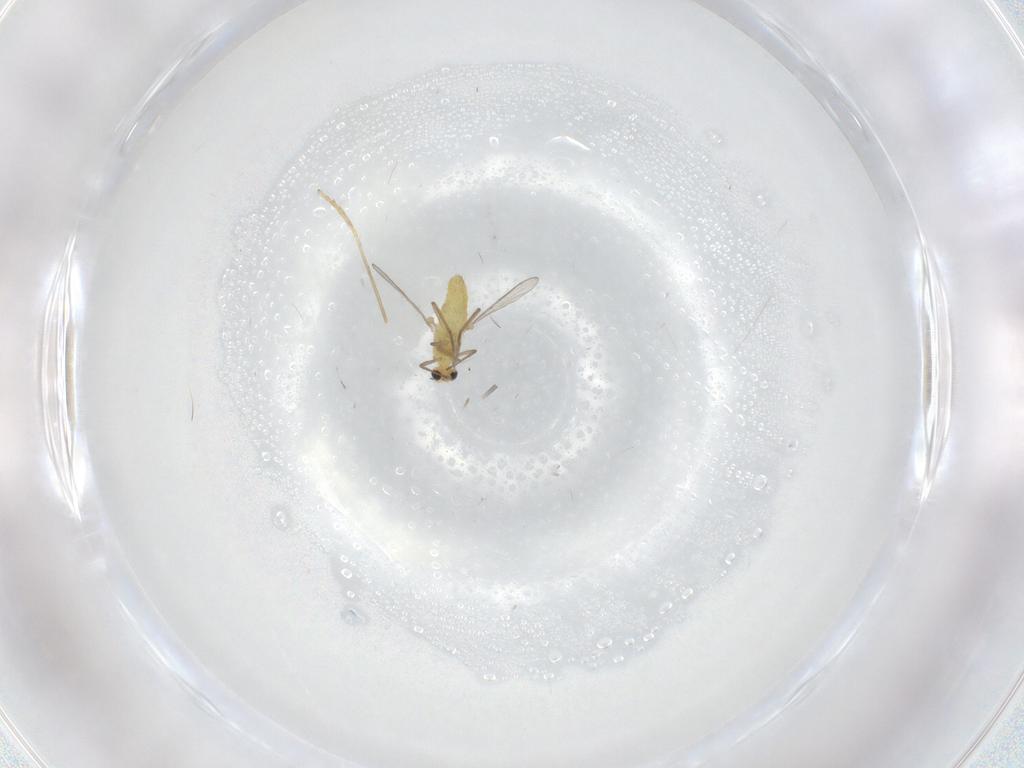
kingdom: Animalia
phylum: Arthropoda
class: Insecta
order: Diptera
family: Chironomidae
